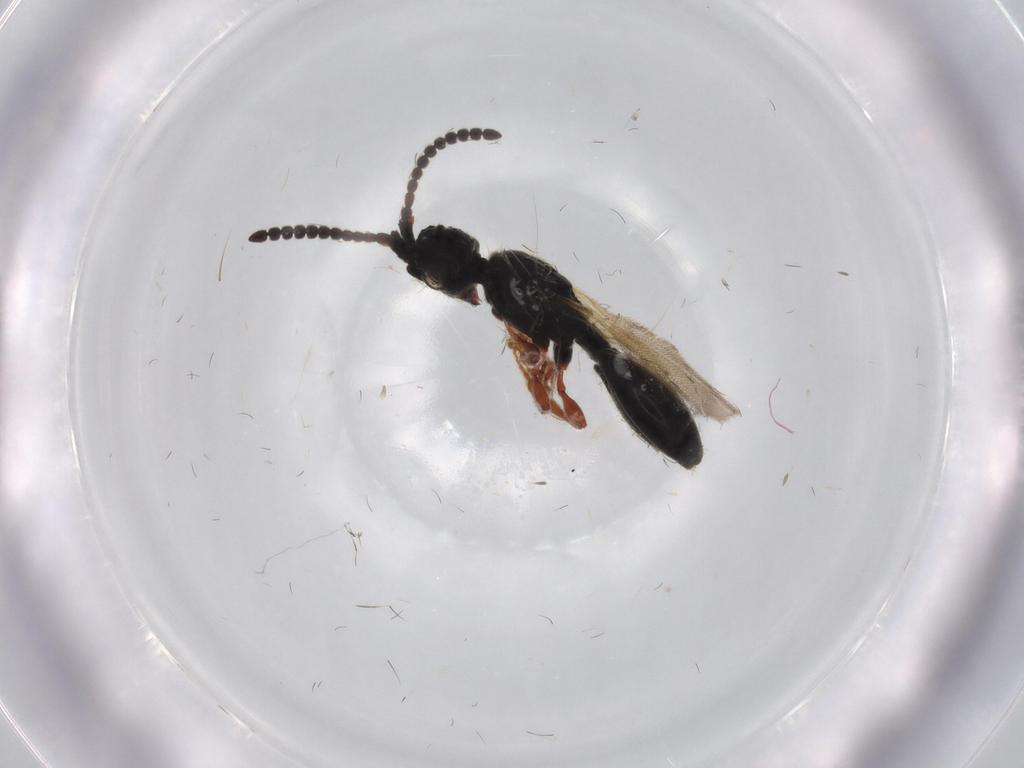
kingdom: Animalia
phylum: Arthropoda
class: Insecta
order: Hymenoptera
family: Diapriidae
